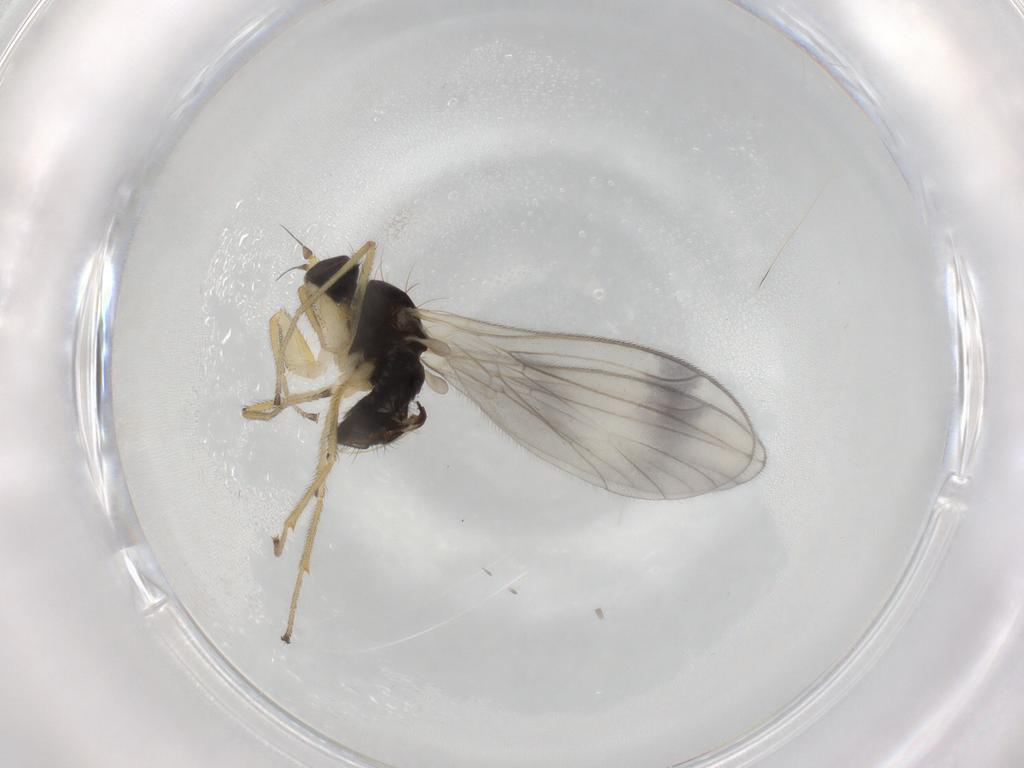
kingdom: Animalia
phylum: Arthropoda
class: Insecta
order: Diptera
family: Empididae
